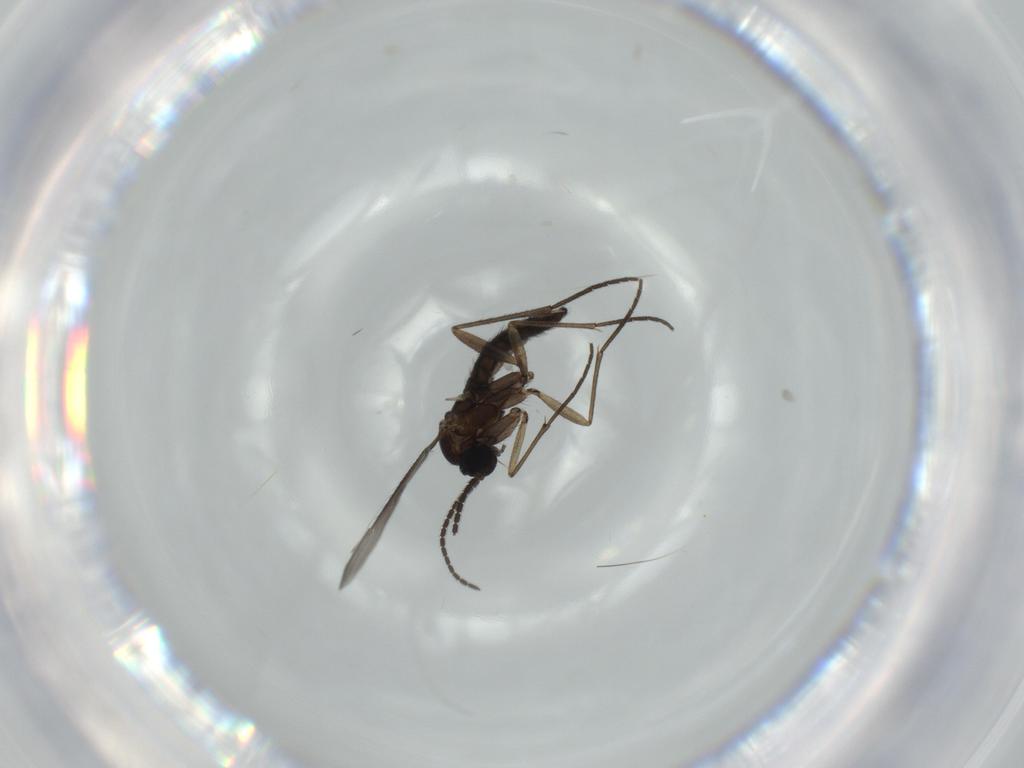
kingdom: Animalia
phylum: Arthropoda
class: Insecta
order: Diptera
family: Sciaridae
